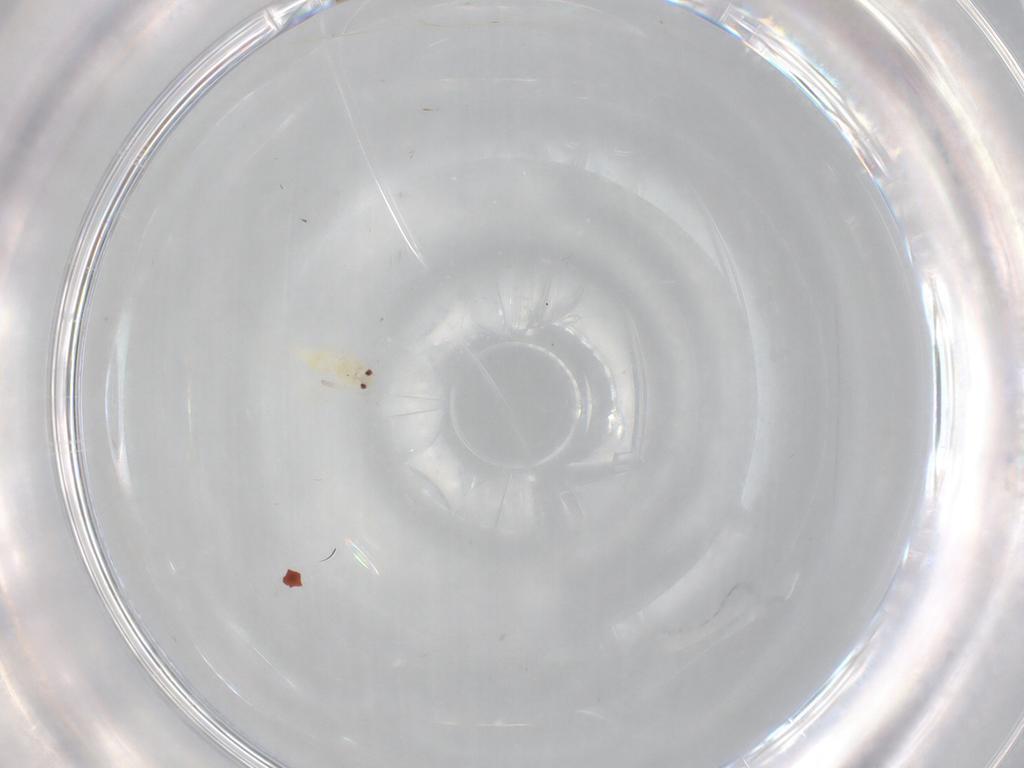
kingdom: Animalia
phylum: Arthropoda
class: Insecta
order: Hemiptera
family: Aleyrodidae
